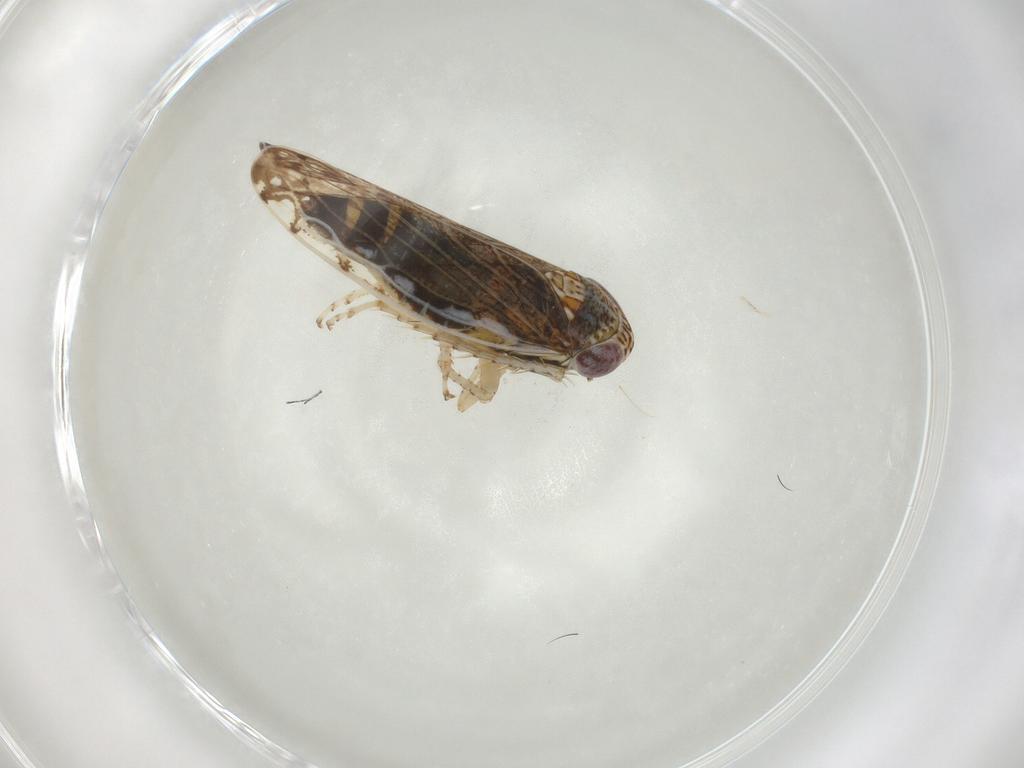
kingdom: Animalia
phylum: Arthropoda
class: Insecta
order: Hemiptera
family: Cicadellidae
